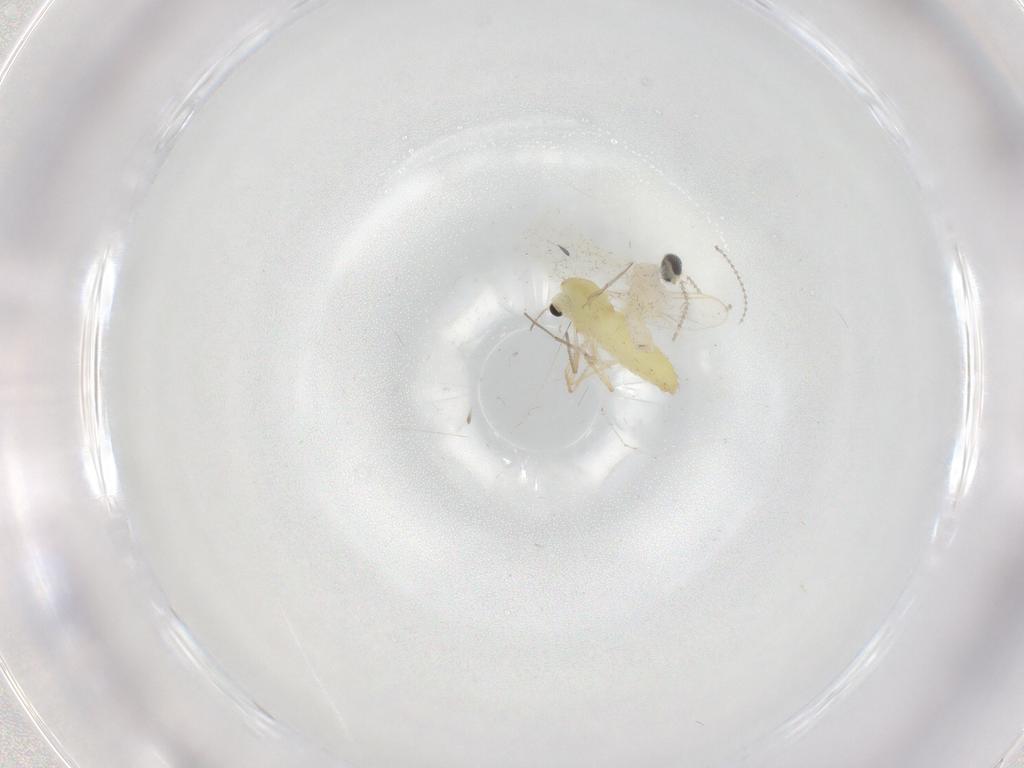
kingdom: Animalia
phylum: Arthropoda
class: Insecta
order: Diptera
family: Chironomidae
